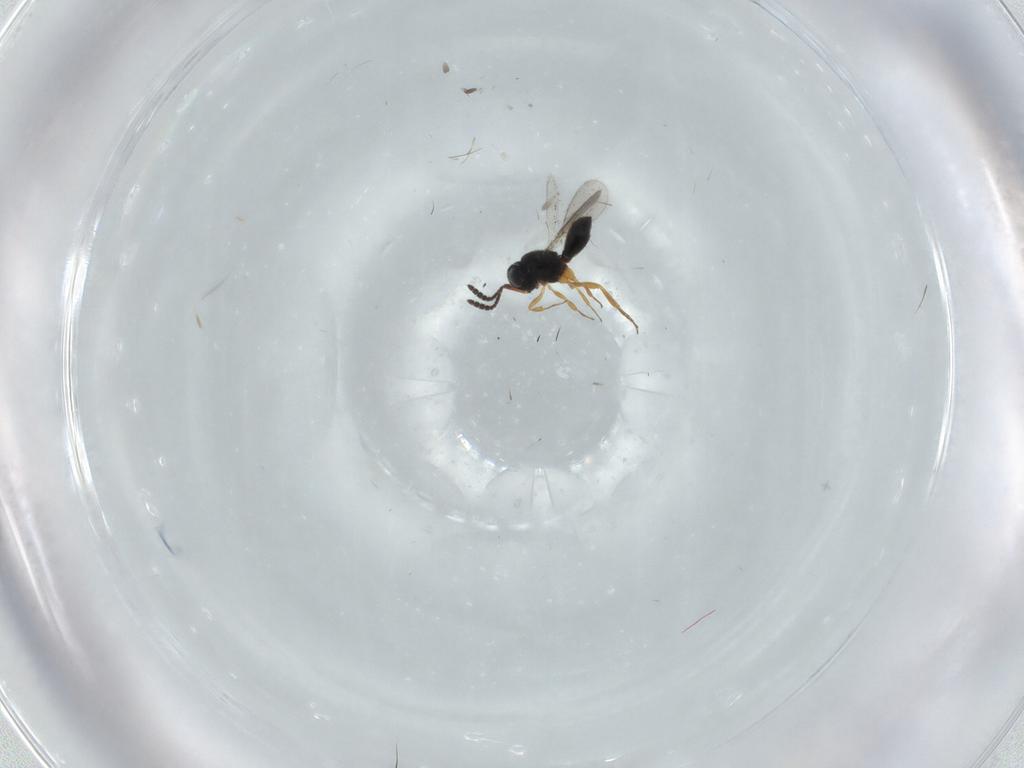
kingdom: Animalia
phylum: Arthropoda
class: Insecta
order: Hymenoptera
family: Scelionidae
